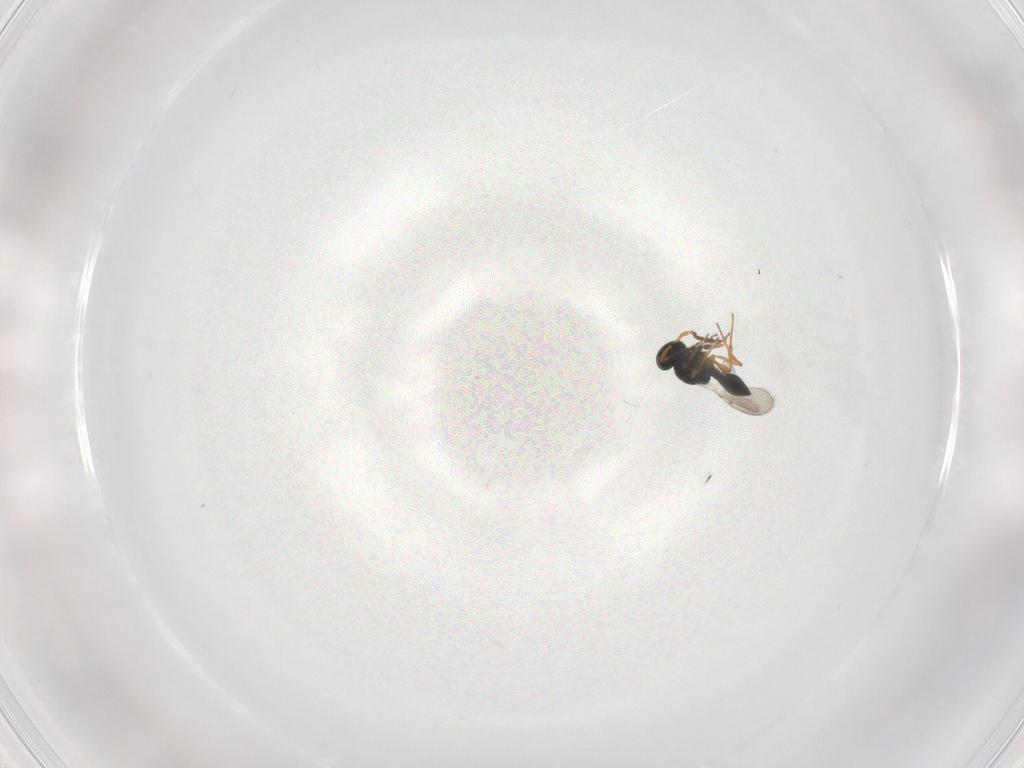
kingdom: Animalia
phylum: Arthropoda
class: Insecta
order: Hymenoptera
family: Platygastridae
